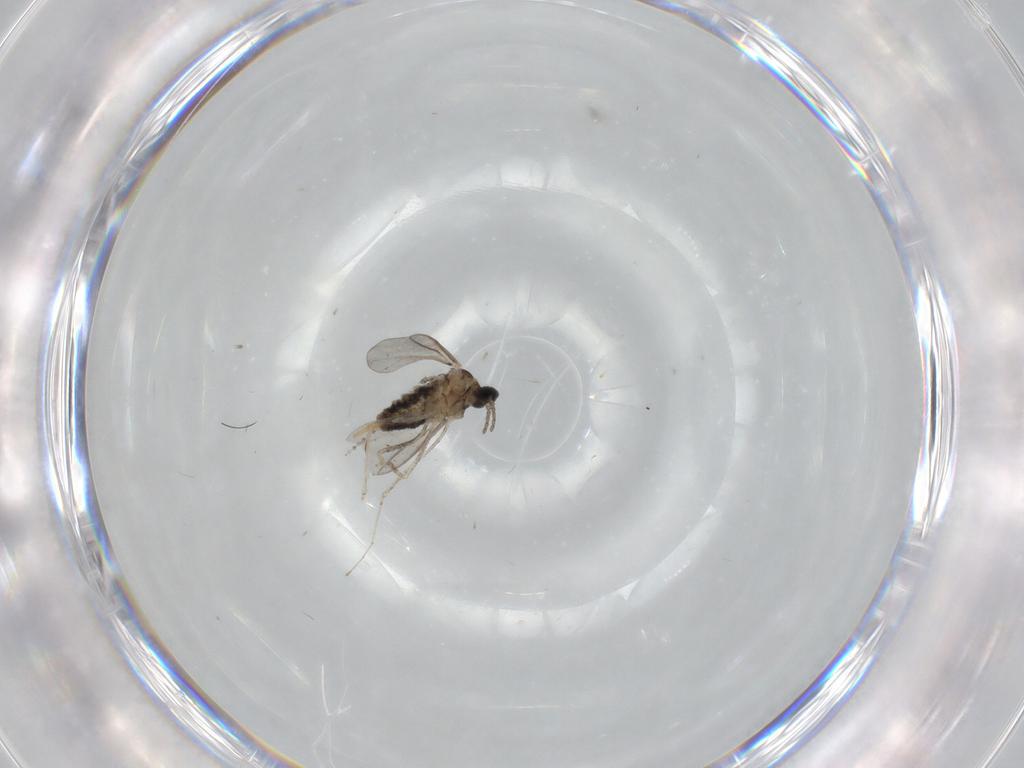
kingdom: Animalia
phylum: Arthropoda
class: Insecta
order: Diptera
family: Cecidomyiidae
